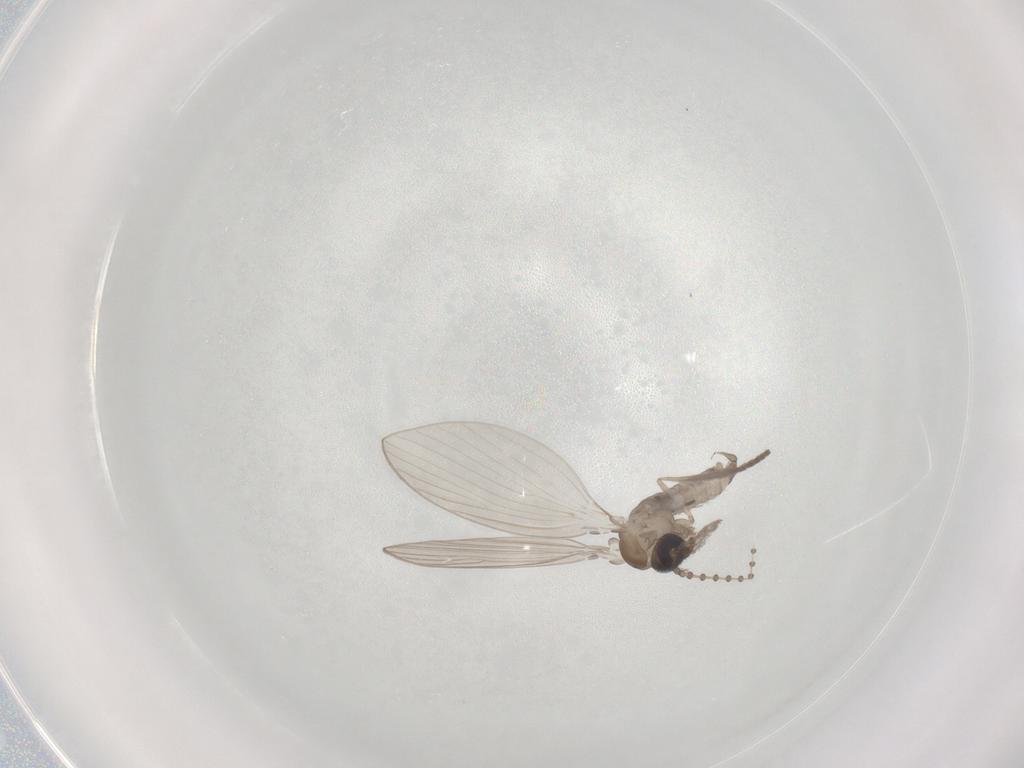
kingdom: Animalia
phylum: Arthropoda
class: Insecta
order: Diptera
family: Psychodidae
